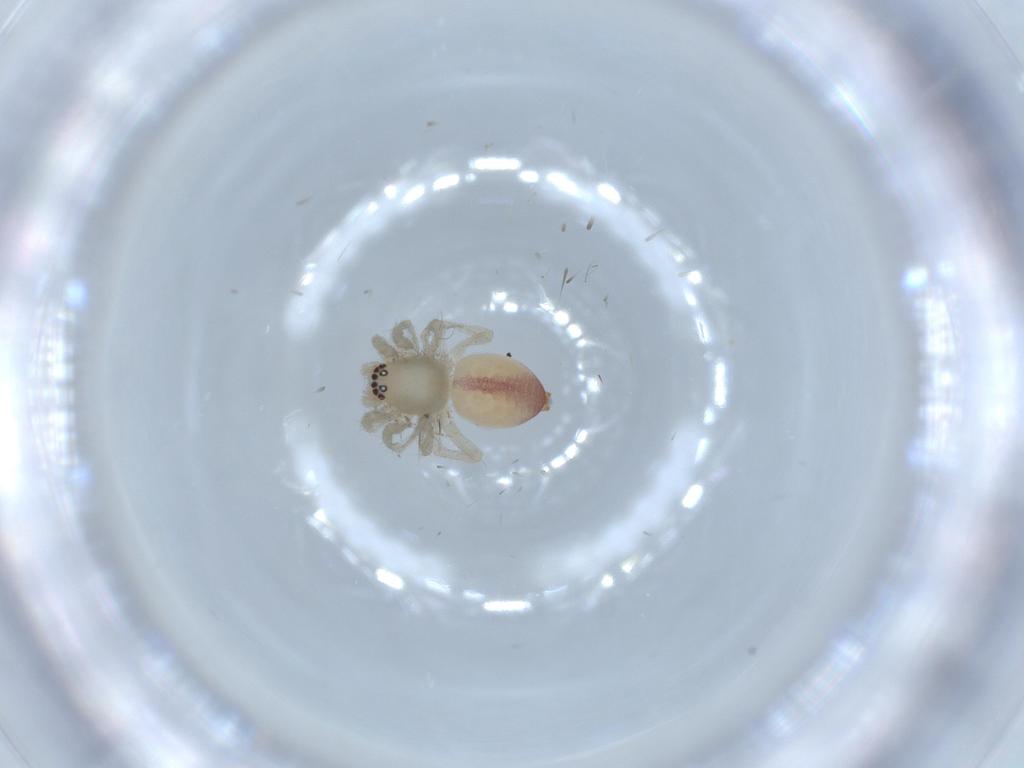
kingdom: Animalia
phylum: Arthropoda
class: Arachnida
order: Araneae
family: Clubionidae
